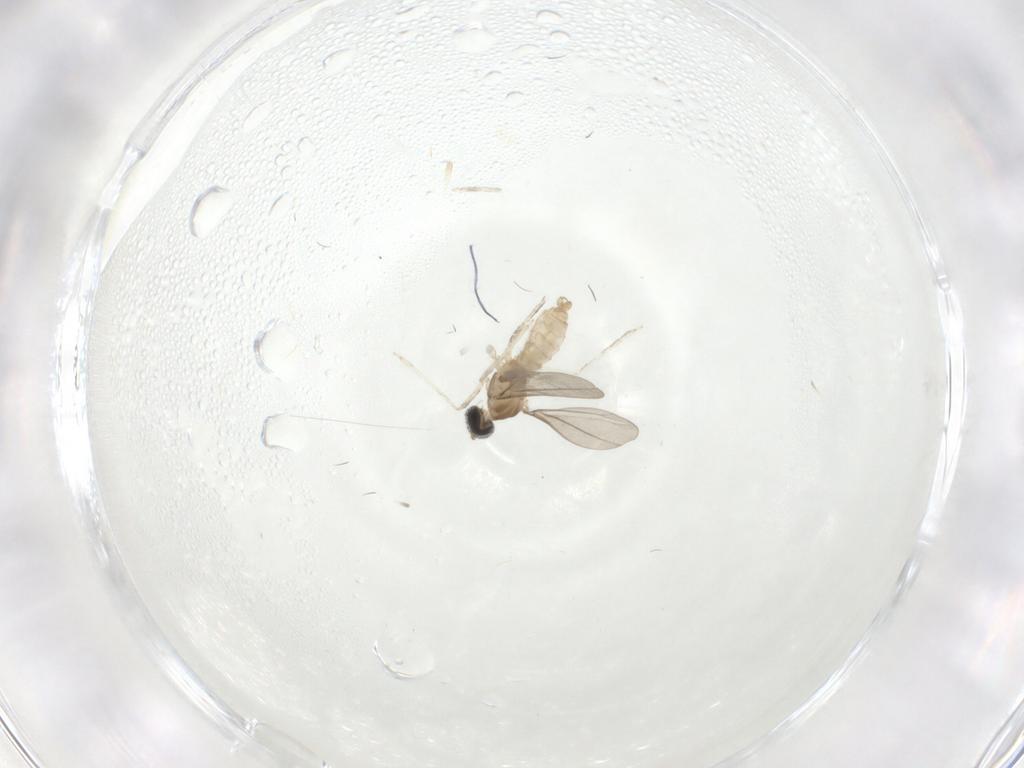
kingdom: Animalia
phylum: Arthropoda
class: Insecta
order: Diptera
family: Cecidomyiidae
